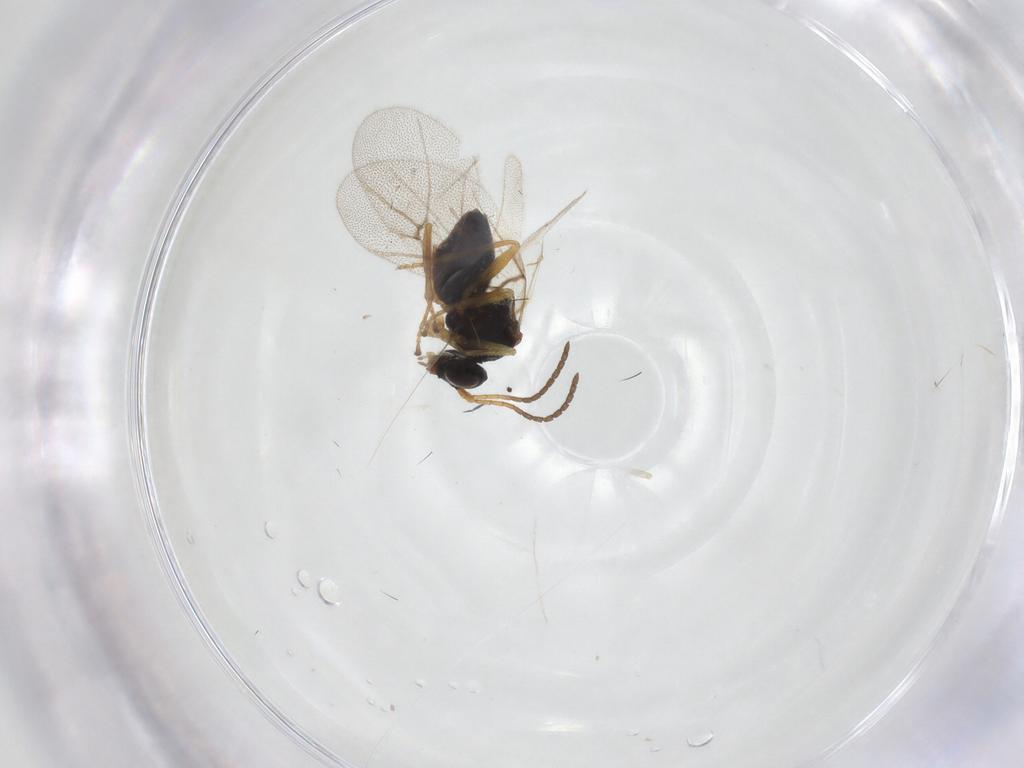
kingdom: Animalia
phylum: Arthropoda
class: Insecta
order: Hymenoptera
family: Cynipidae
